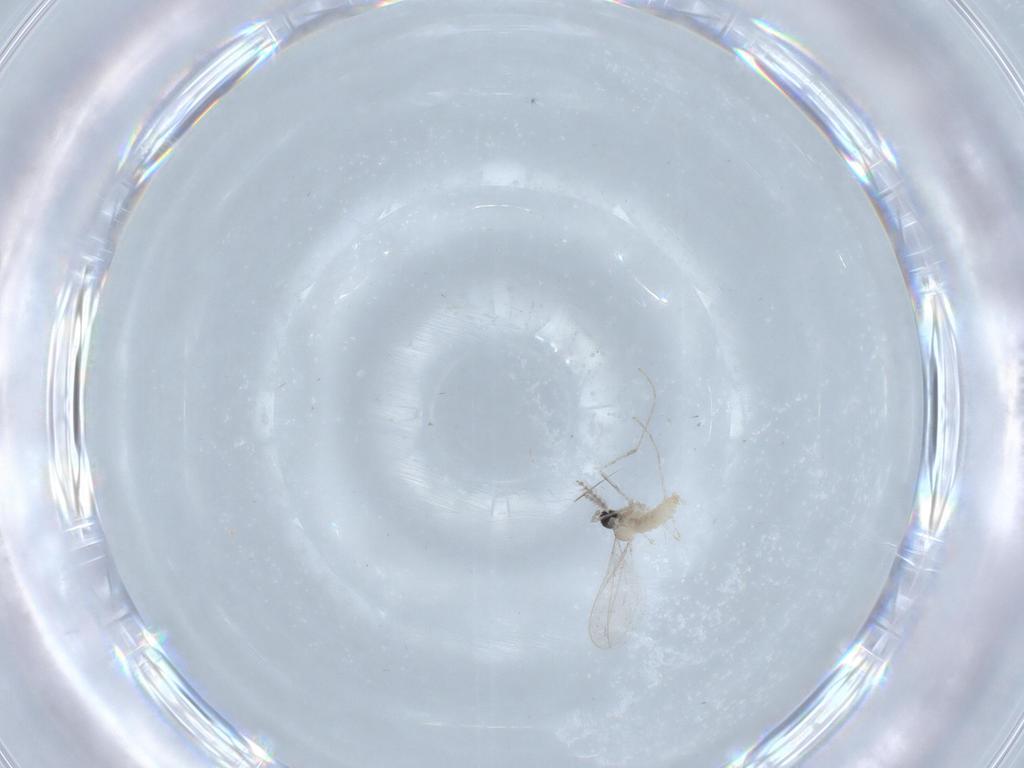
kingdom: Animalia
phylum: Arthropoda
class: Insecta
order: Diptera
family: Cecidomyiidae
